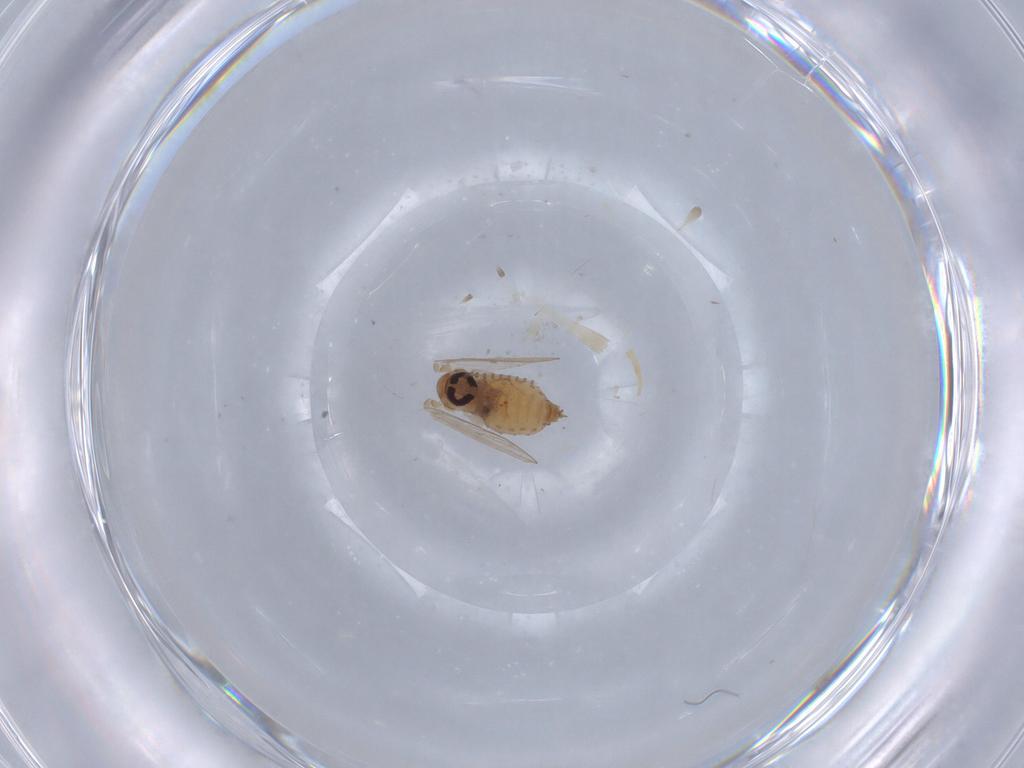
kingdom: Animalia
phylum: Arthropoda
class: Insecta
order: Diptera
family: Psychodidae
